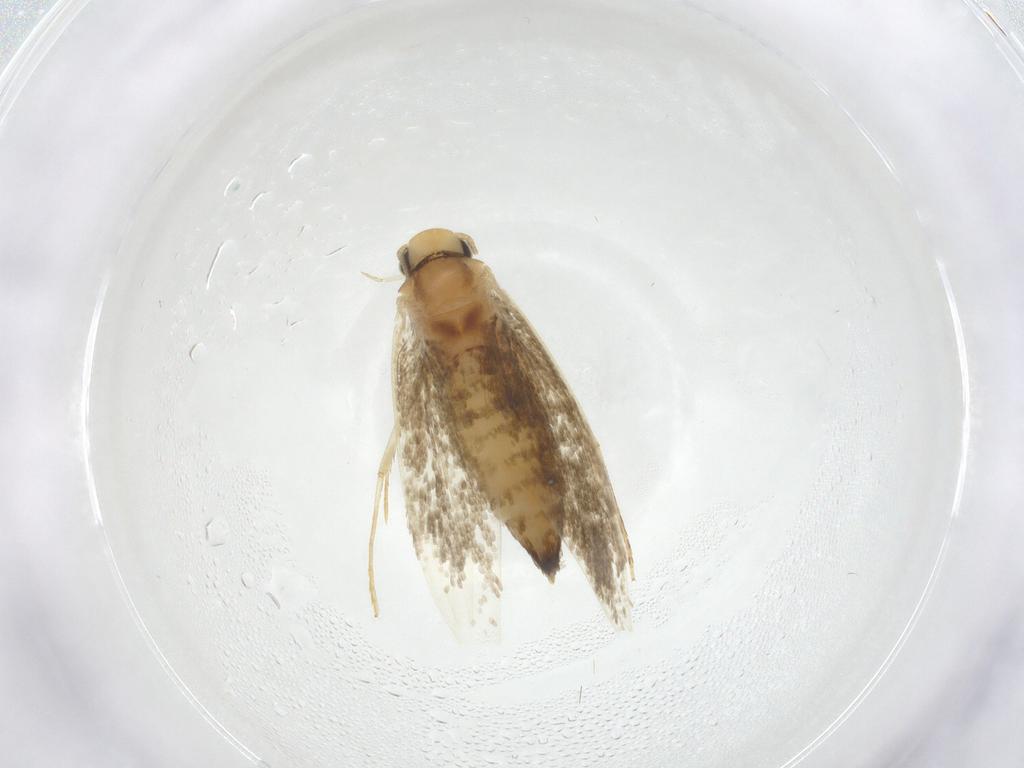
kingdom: Animalia
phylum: Arthropoda
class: Insecta
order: Lepidoptera
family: Tineidae
